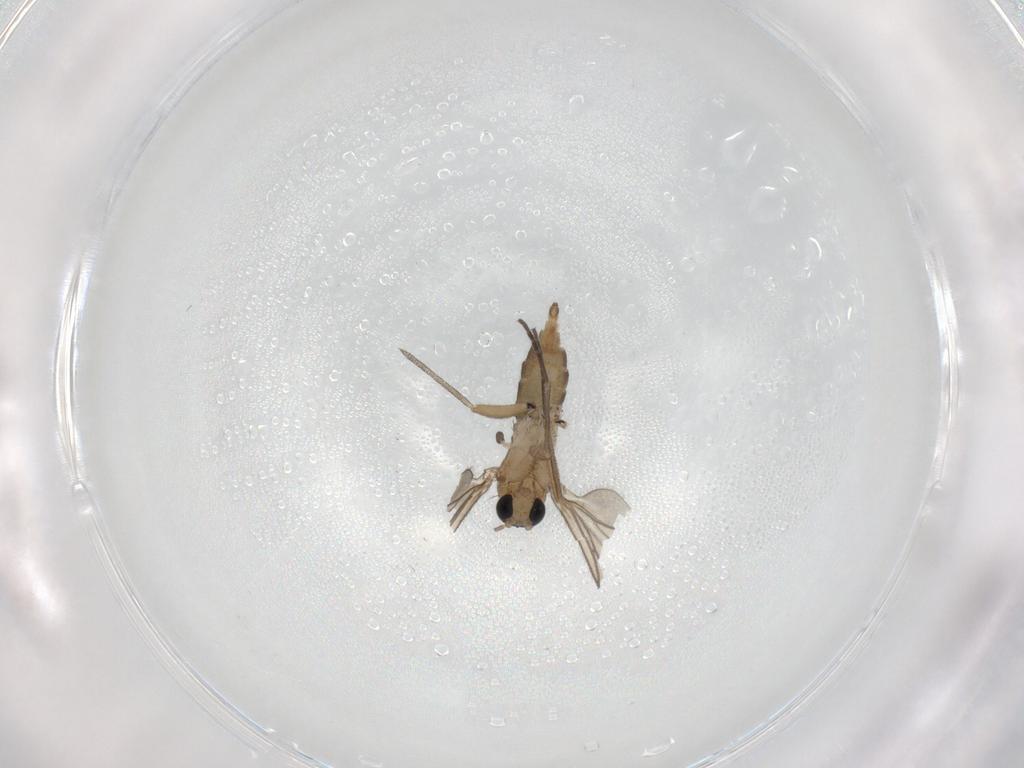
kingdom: Animalia
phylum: Arthropoda
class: Insecta
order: Diptera
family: Sciaridae
